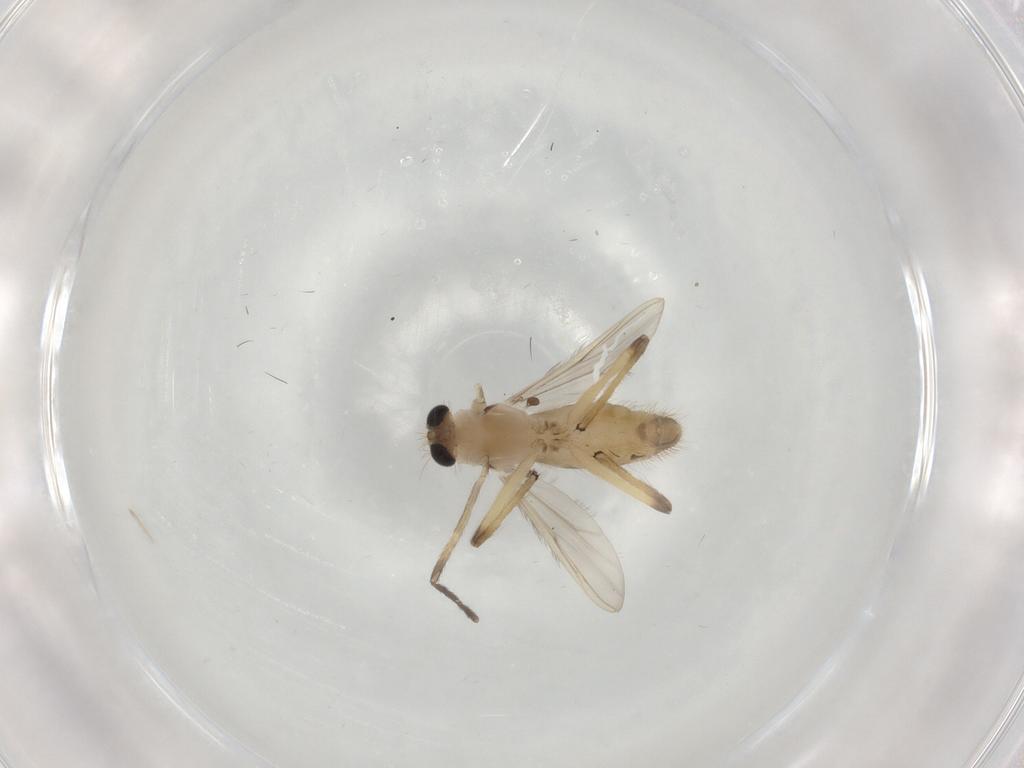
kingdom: Animalia
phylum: Arthropoda
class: Insecta
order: Diptera
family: Chironomidae
